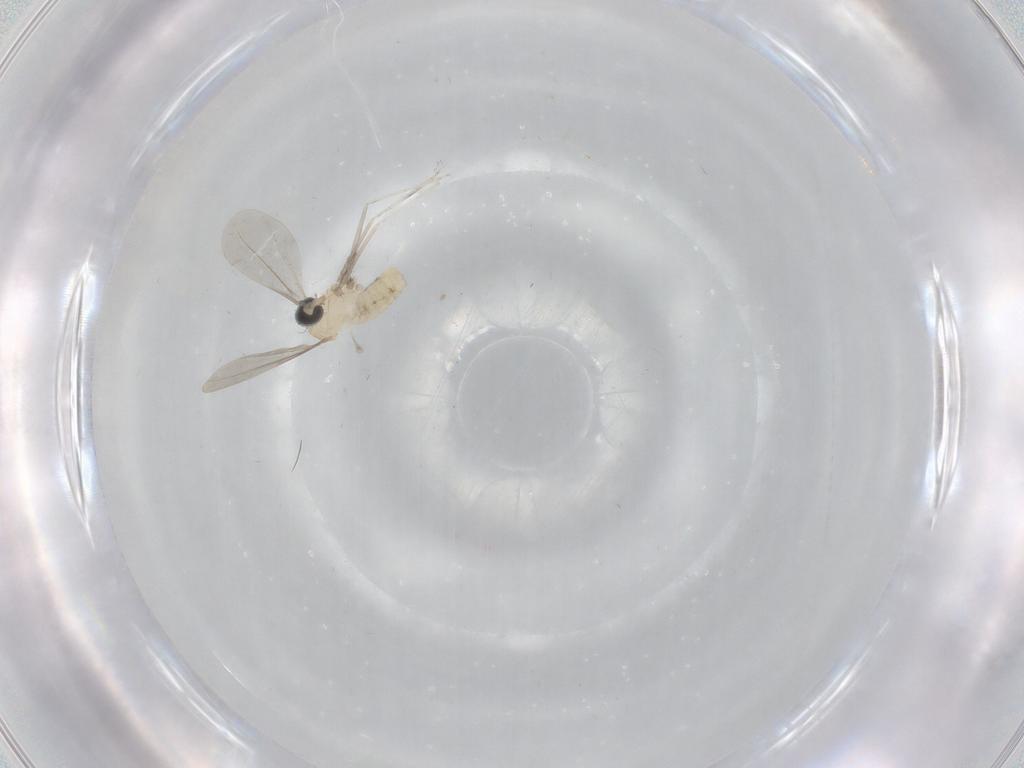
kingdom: Animalia
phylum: Arthropoda
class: Insecta
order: Diptera
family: Cecidomyiidae
